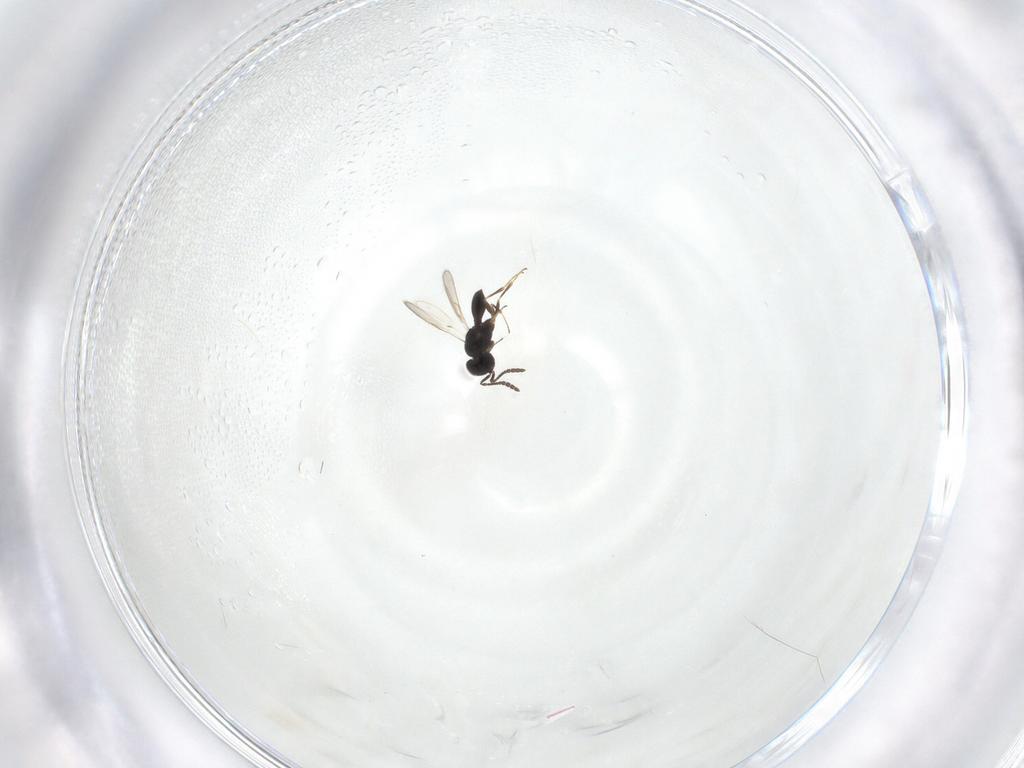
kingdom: Animalia
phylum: Arthropoda
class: Insecta
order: Hymenoptera
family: Scelionidae
